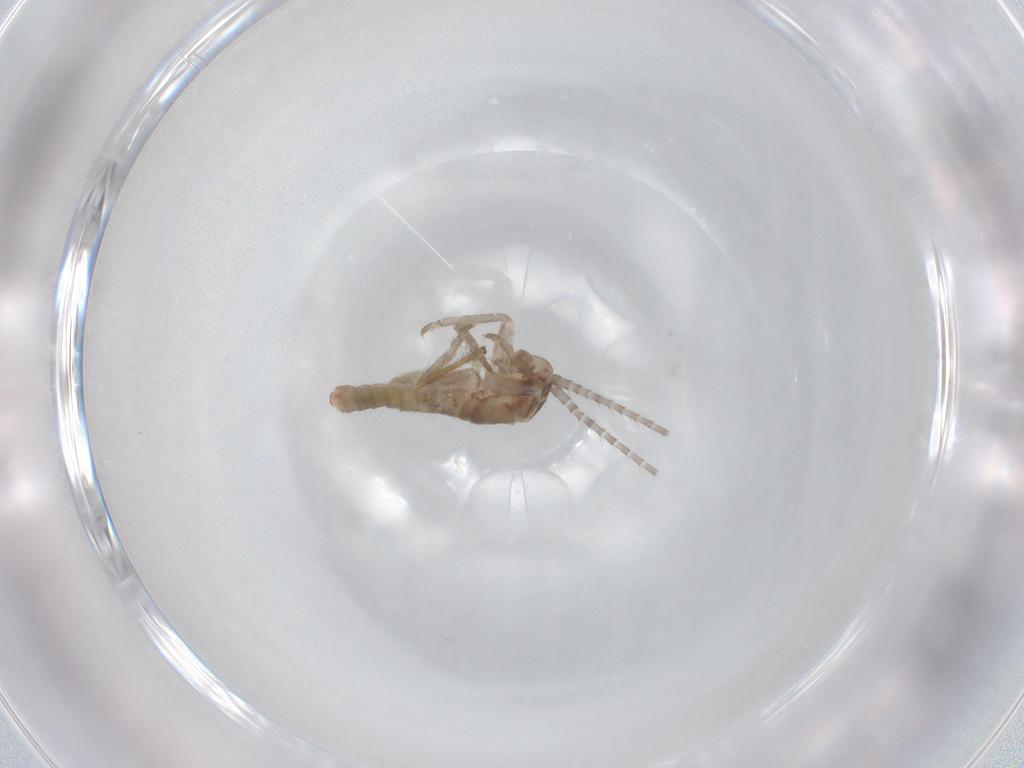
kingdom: Animalia
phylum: Arthropoda
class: Insecta
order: Orthoptera
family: Mogoplistidae
